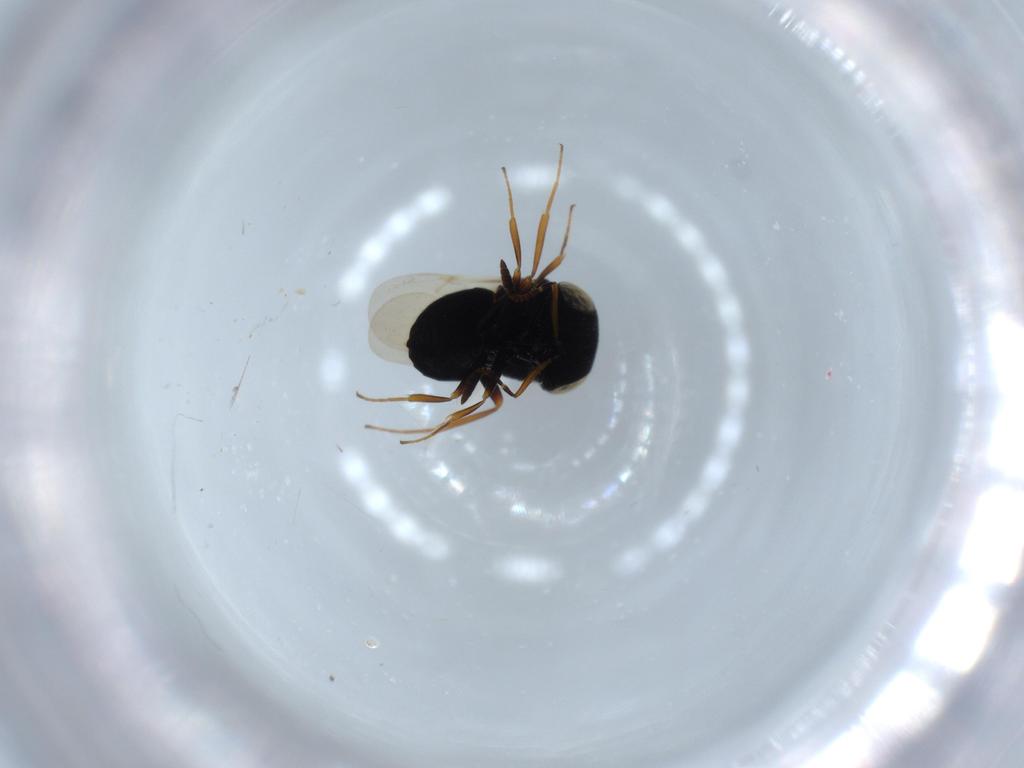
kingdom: Animalia
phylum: Arthropoda
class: Insecta
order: Hymenoptera
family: Scelionidae
